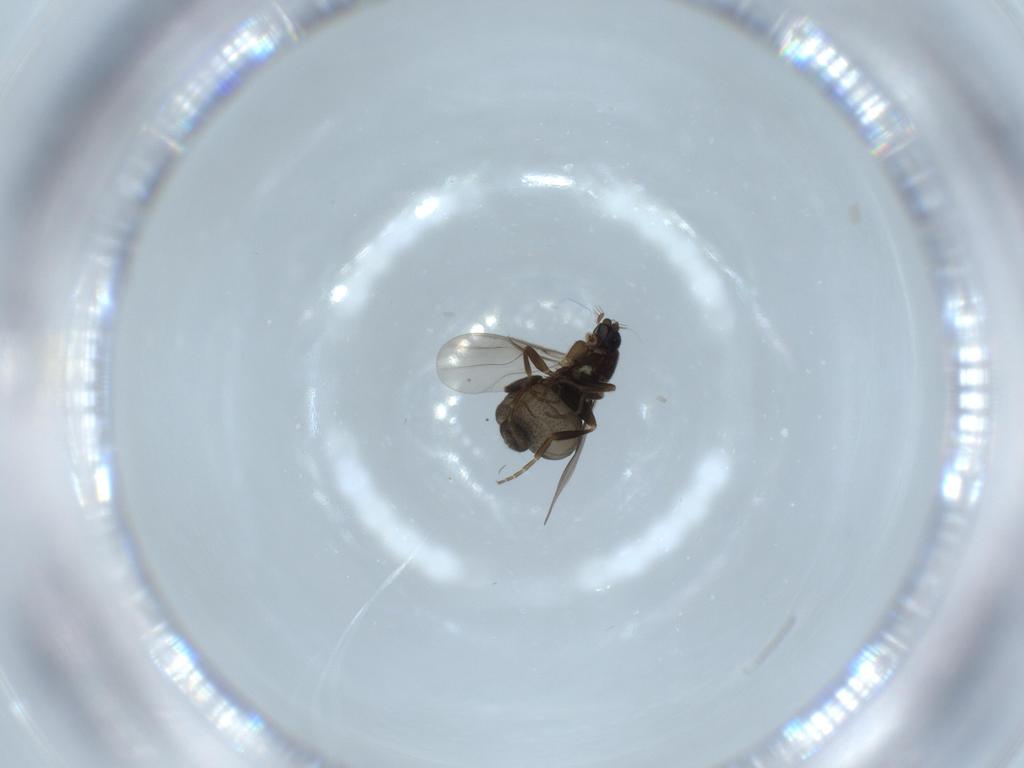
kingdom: Animalia
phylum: Arthropoda
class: Insecta
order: Diptera
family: Phoridae
